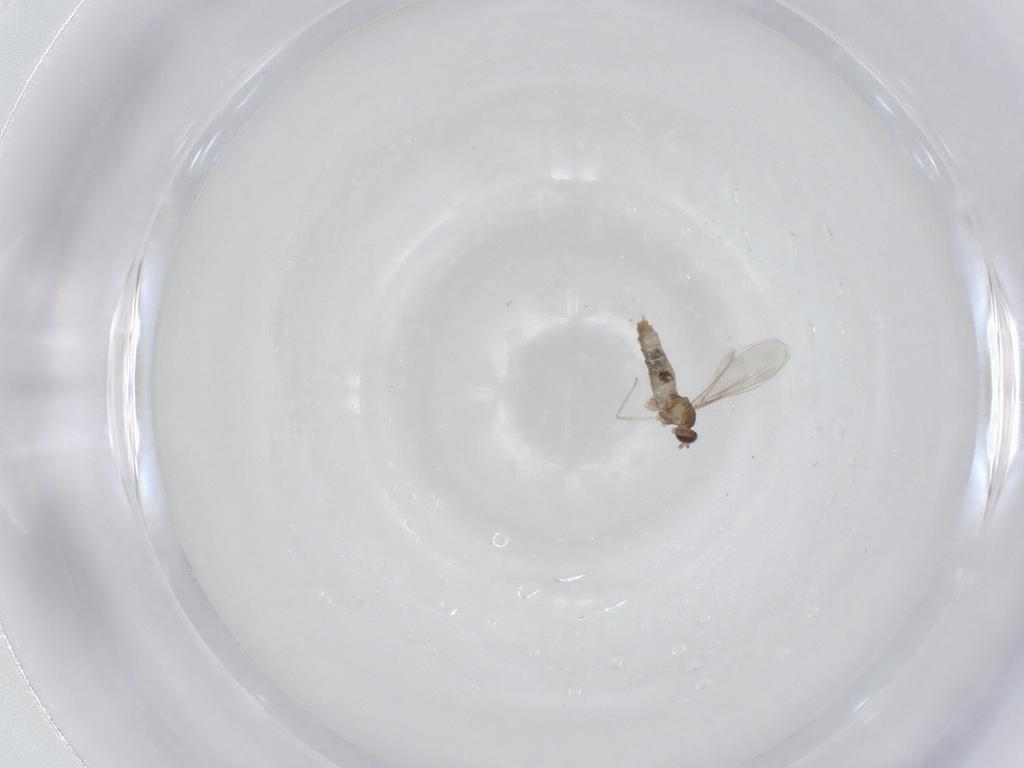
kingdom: Animalia
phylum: Arthropoda
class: Insecta
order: Diptera
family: Cecidomyiidae
